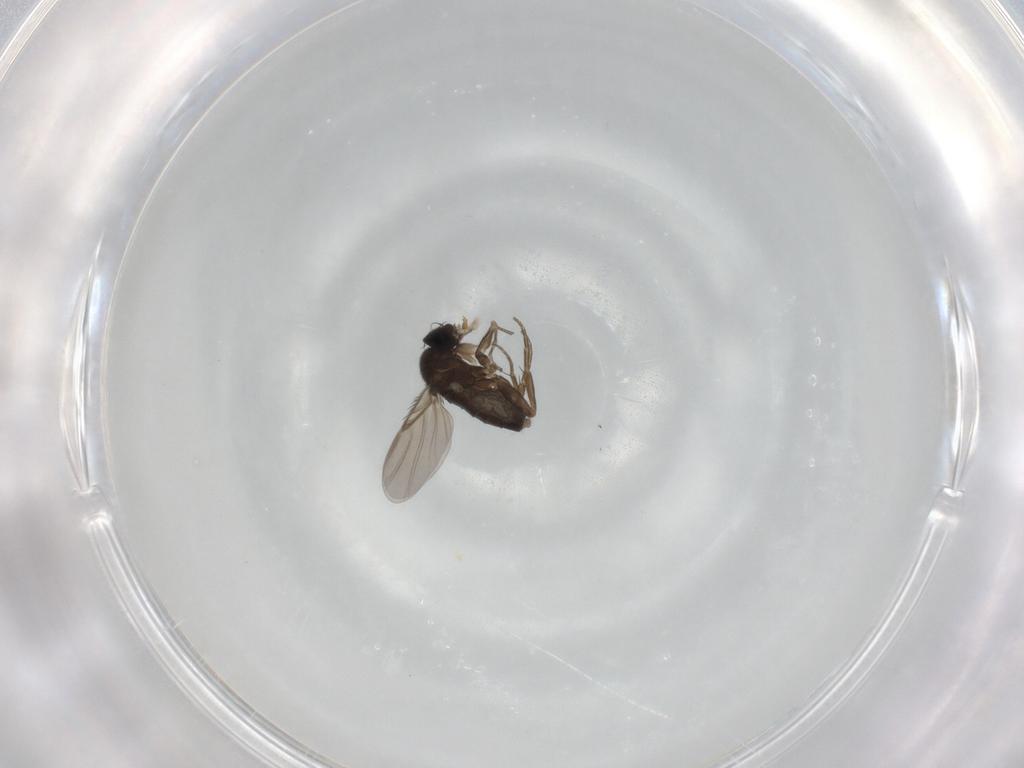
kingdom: Animalia
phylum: Arthropoda
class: Insecta
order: Diptera
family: Phoridae
